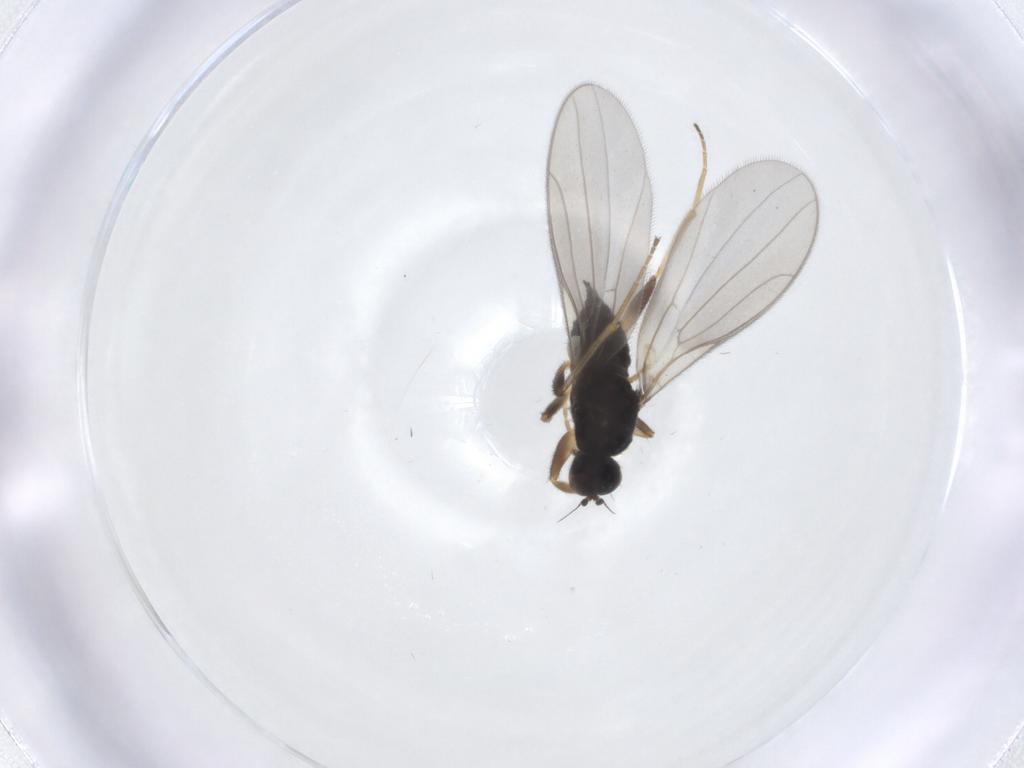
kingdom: Animalia
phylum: Arthropoda
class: Insecta
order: Diptera
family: Hybotidae
